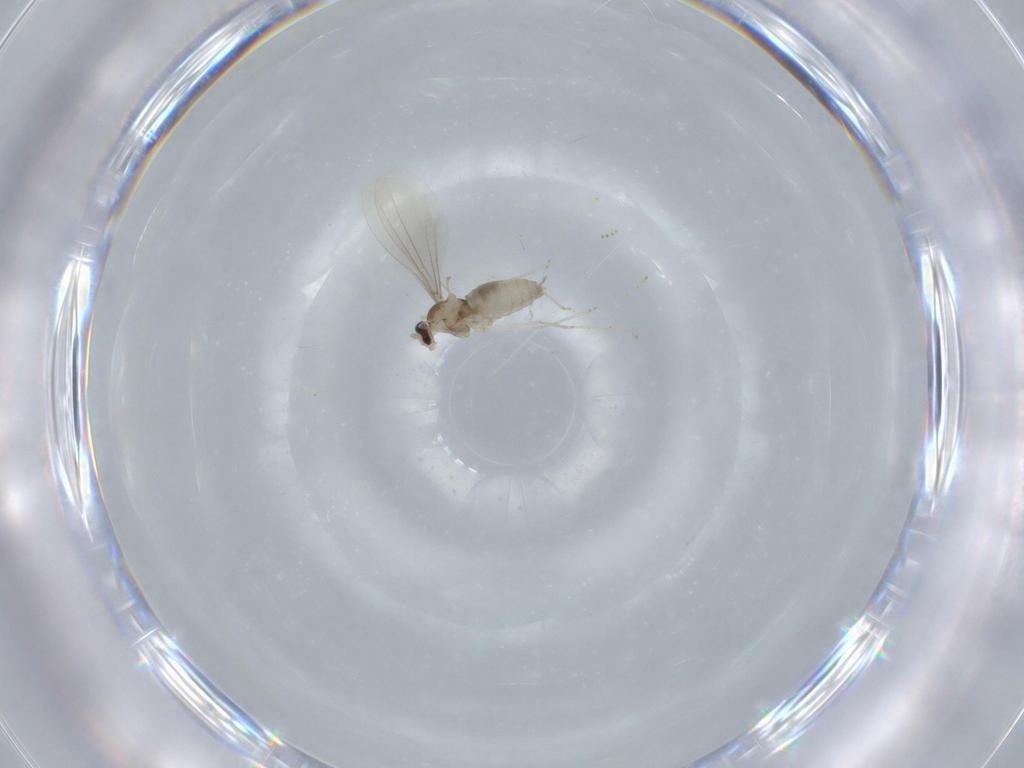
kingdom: Animalia
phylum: Arthropoda
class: Insecta
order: Diptera
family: Cecidomyiidae
